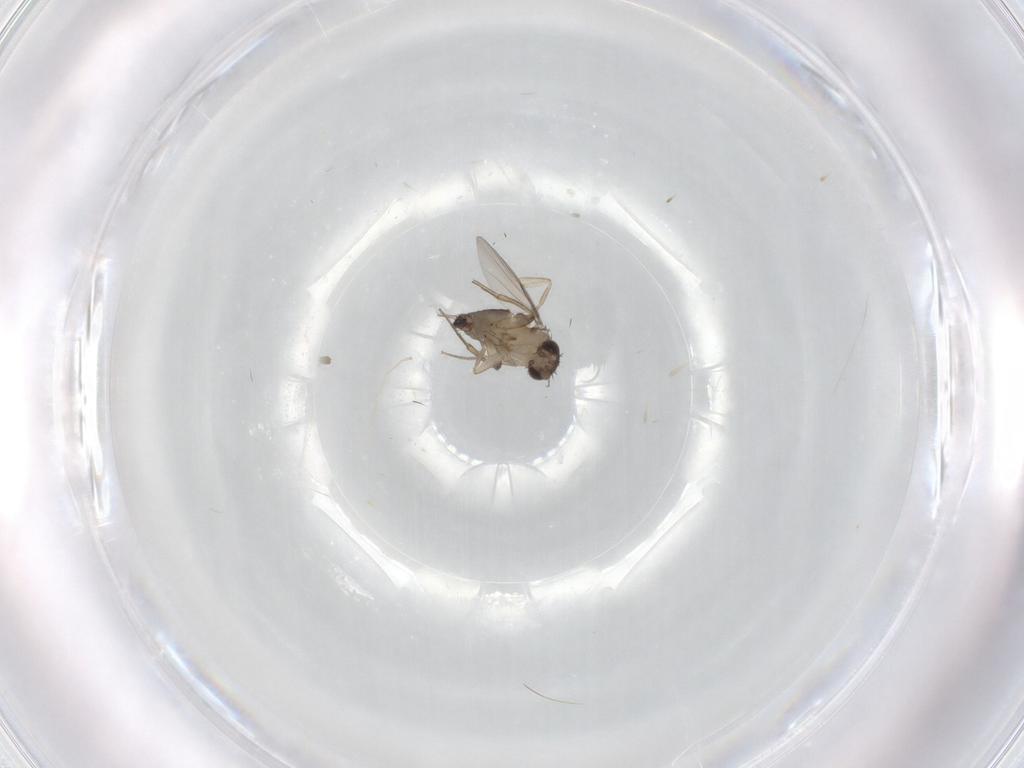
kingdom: Animalia
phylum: Arthropoda
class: Insecta
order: Diptera
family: Phoridae
